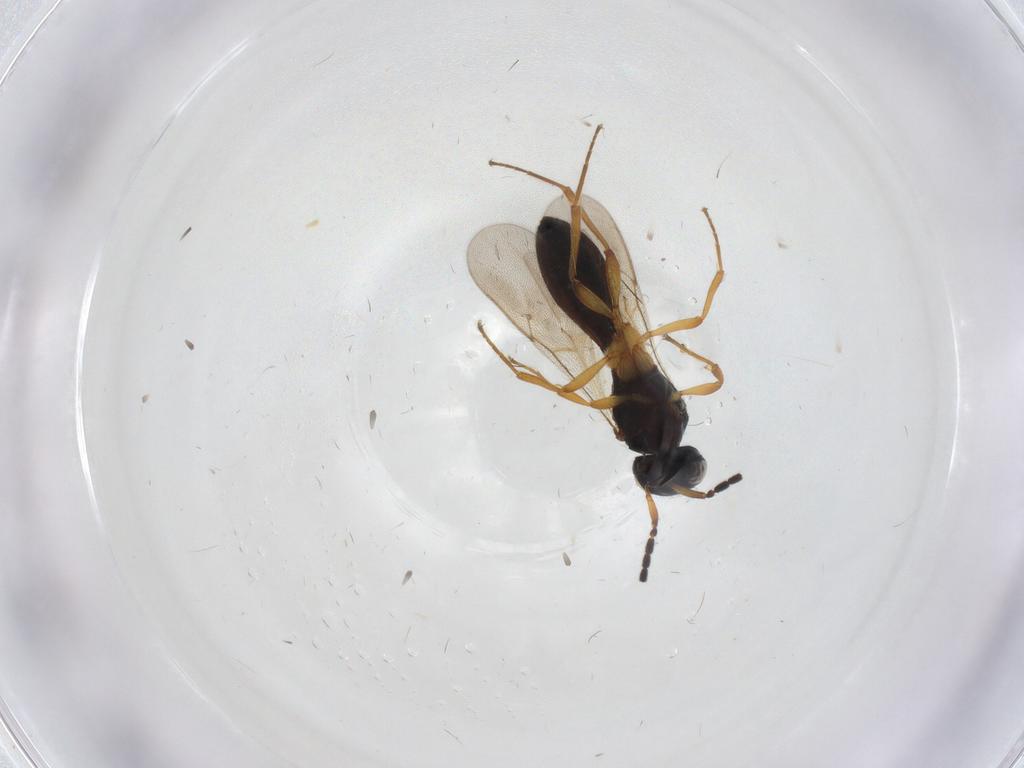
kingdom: Animalia
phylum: Arthropoda
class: Insecta
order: Hymenoptera
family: Scelionidae
